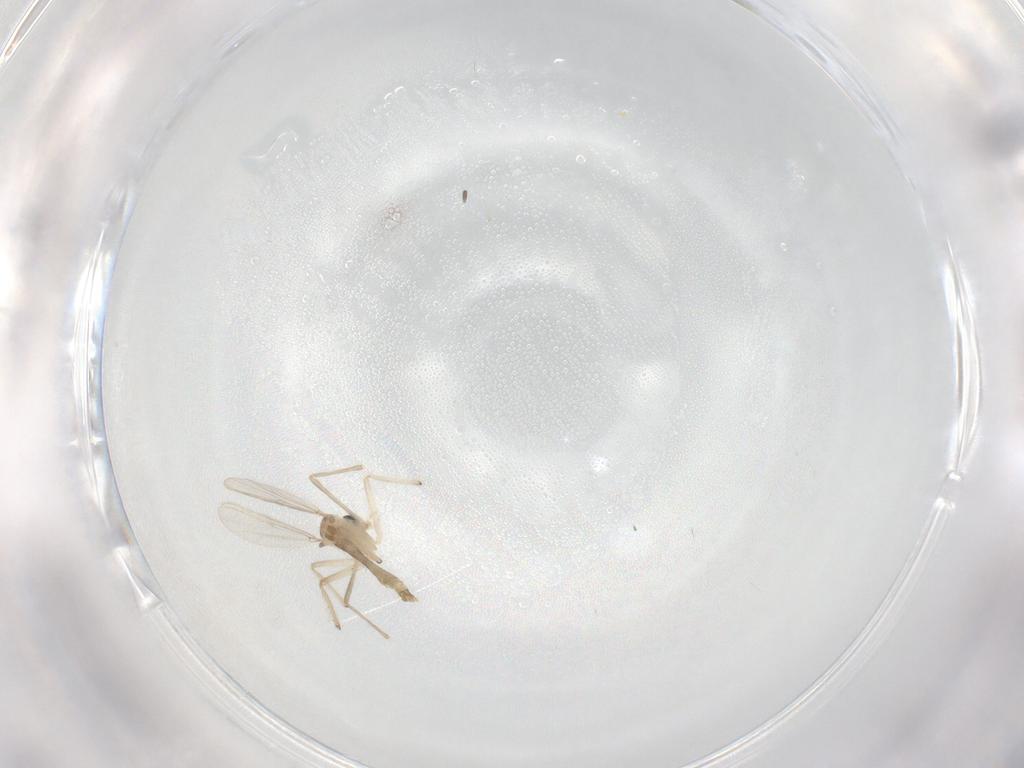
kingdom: Animalia
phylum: Arthropoda
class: Insecta
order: Diptera
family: Chironomidae
